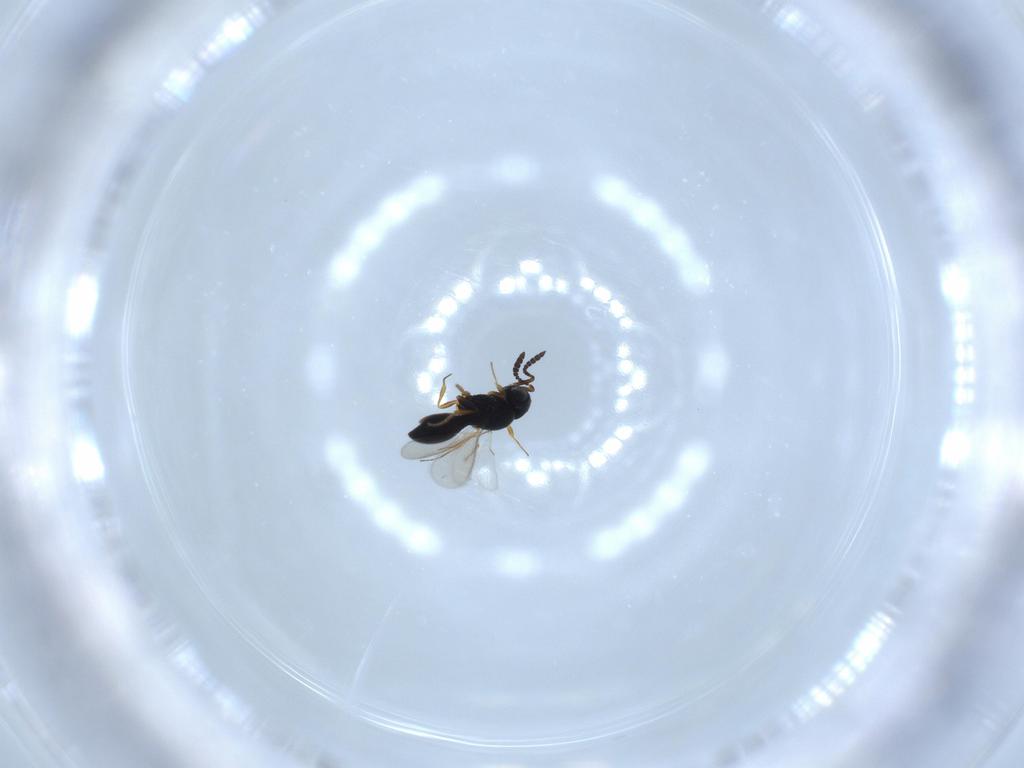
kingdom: Animalia
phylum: Arthropoda
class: Insecta
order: Hymenoptera
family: Scelionidae
